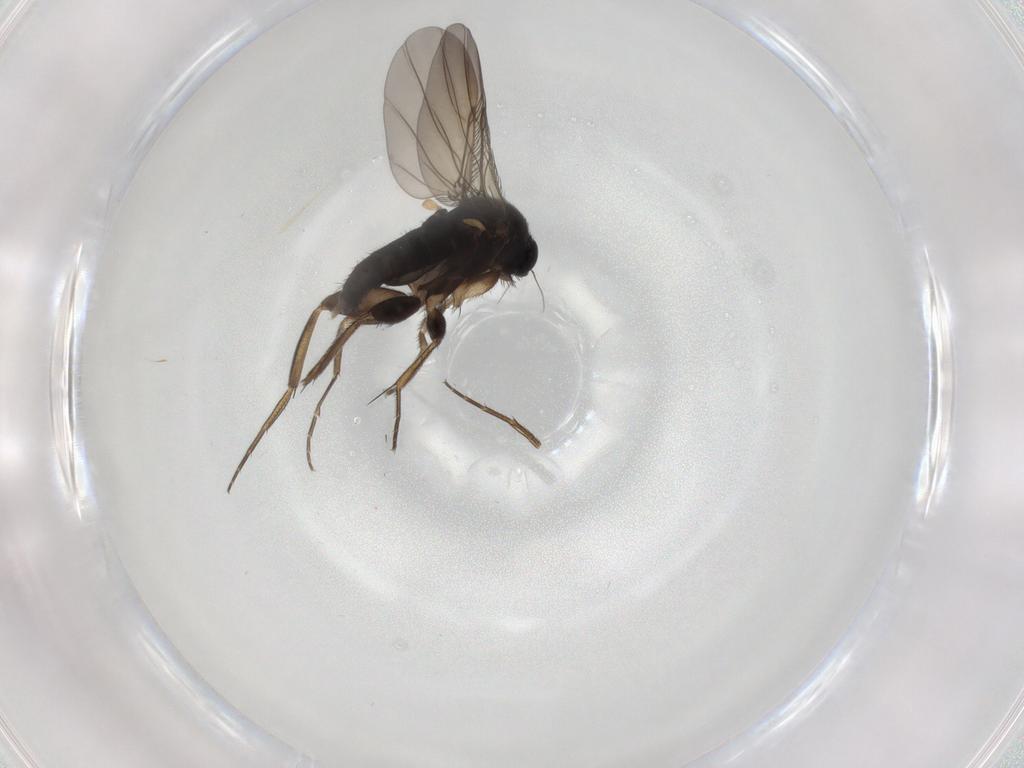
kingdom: Animalia
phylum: Arthropoda
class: Insecta
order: Diptera
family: Phoridae
